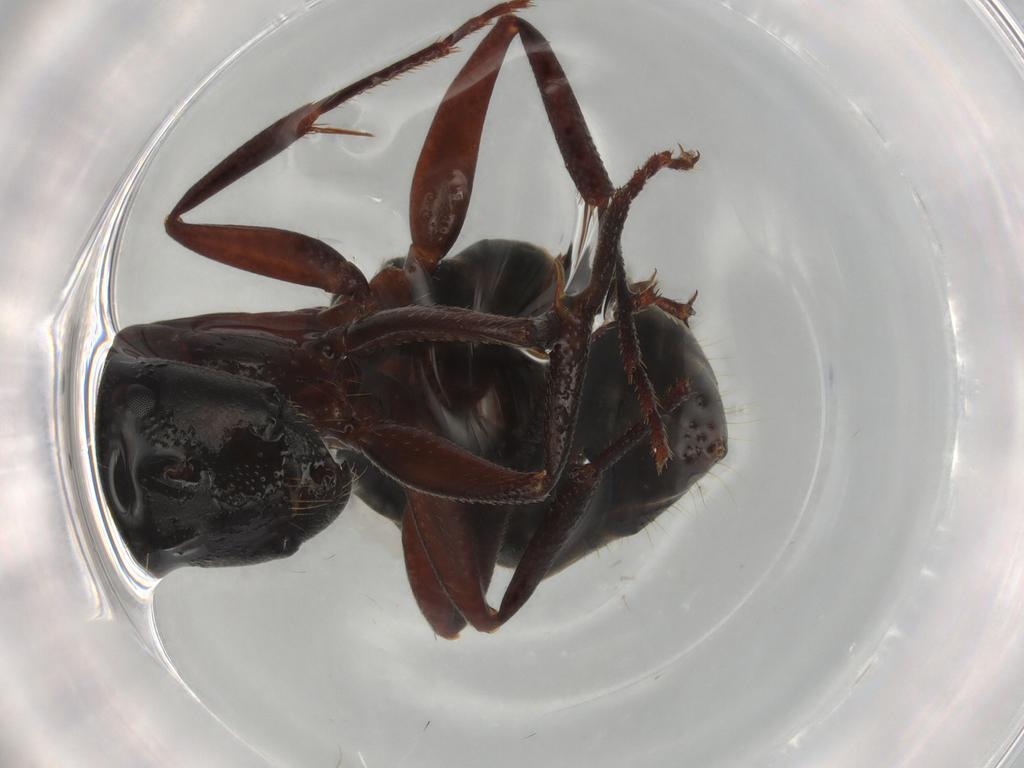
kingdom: Animalia
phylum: Arthropoda
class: Insecta
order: Hymenoptera
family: Formicidae
